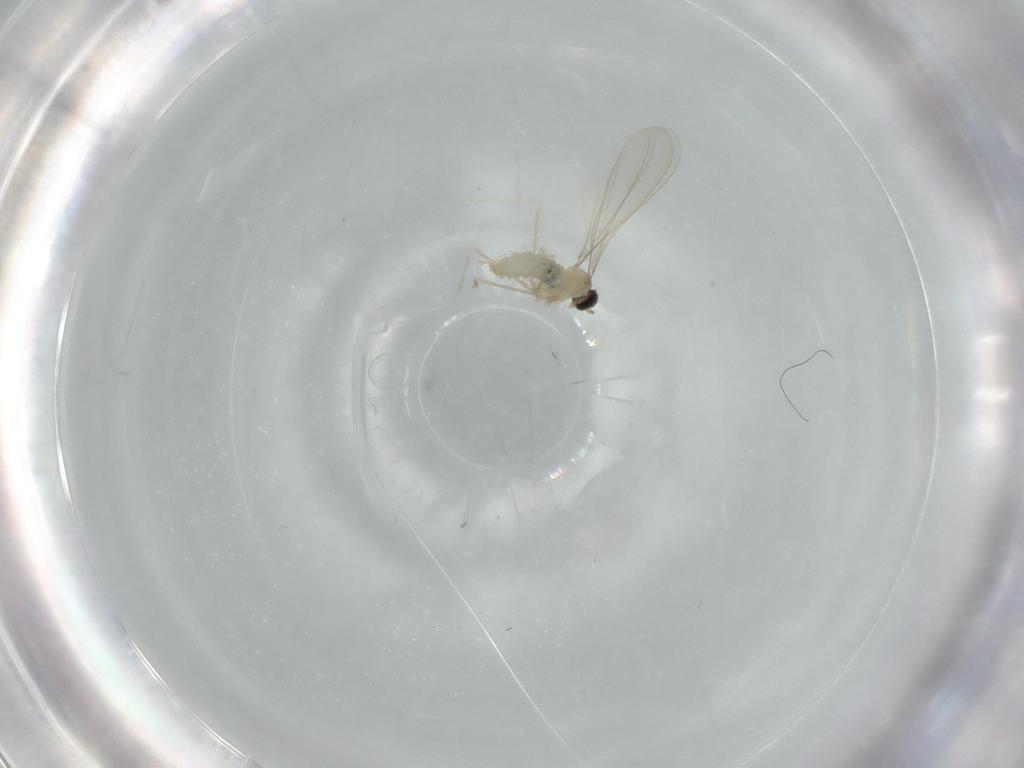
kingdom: Animalia
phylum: Arthropoda
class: Insecta
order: Diptera
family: Cecidomyiidae
